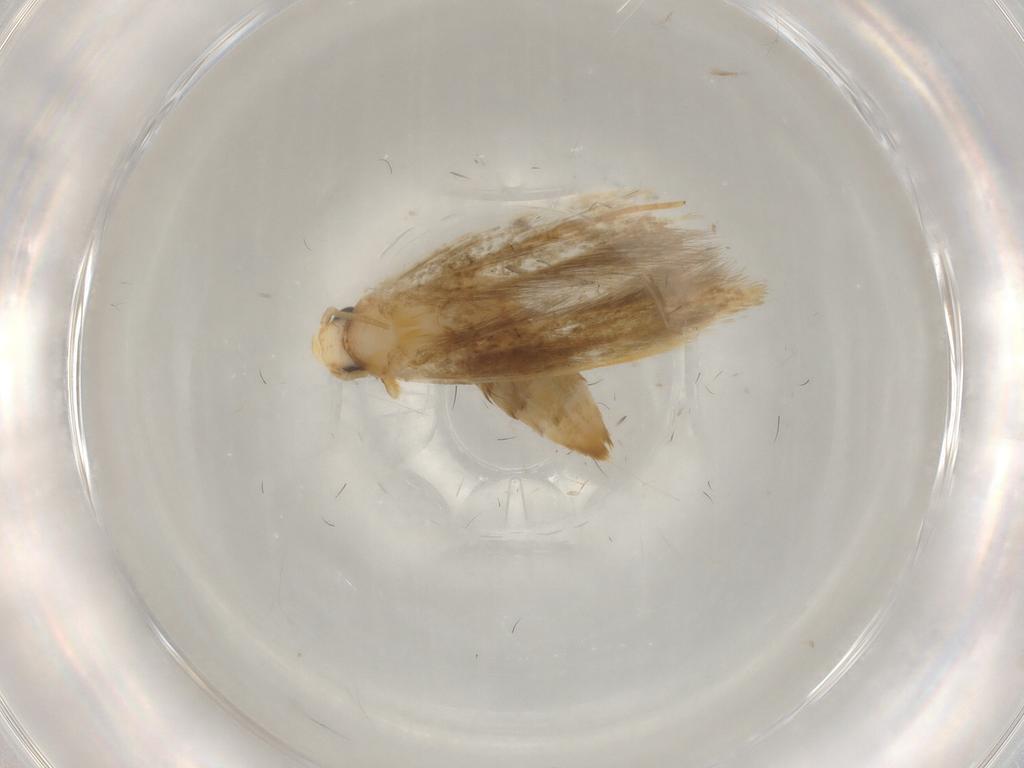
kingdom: Animalia
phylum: Arthropoda
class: Insecta
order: Lepidoptera
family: Tineidae
